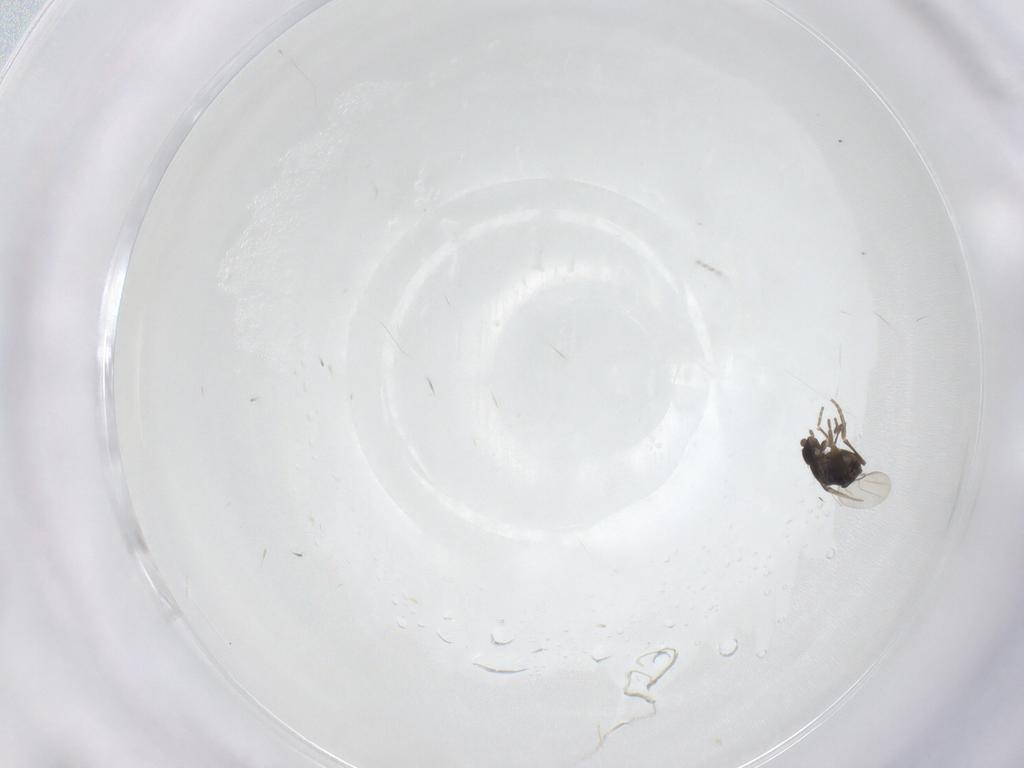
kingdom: Animalia
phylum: Arthropoda
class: Insecta
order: Diptera
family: Phoridae
